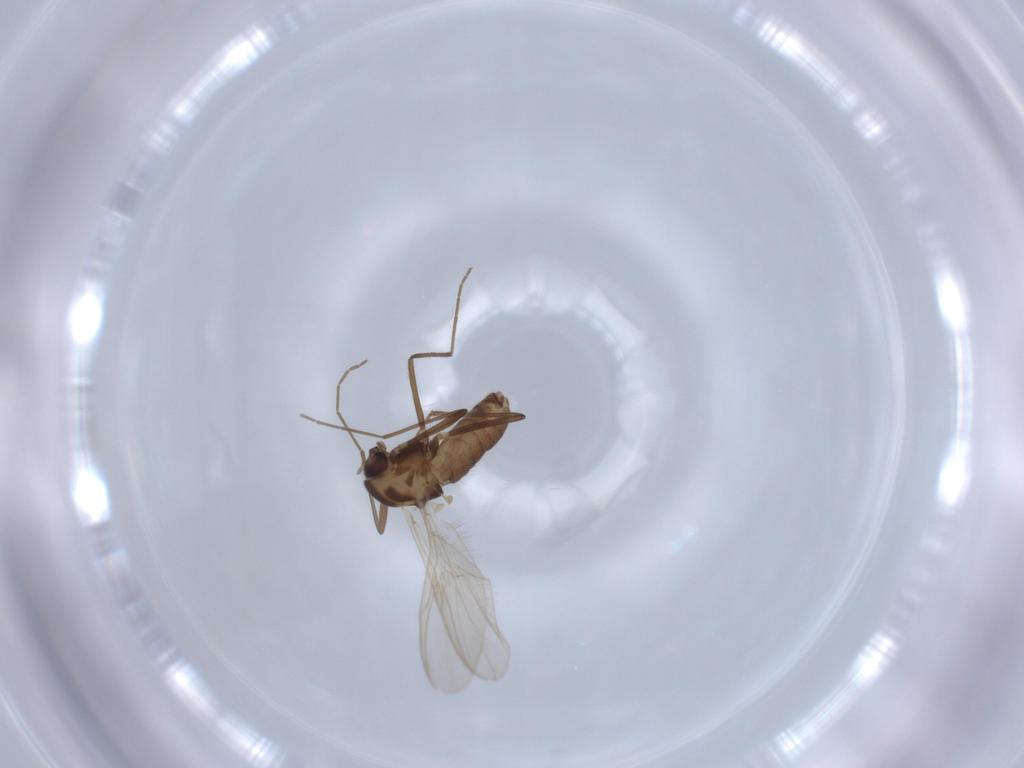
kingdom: Animalia
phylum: Arthropoda
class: Insecta
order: Diptera
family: Chironomidae
